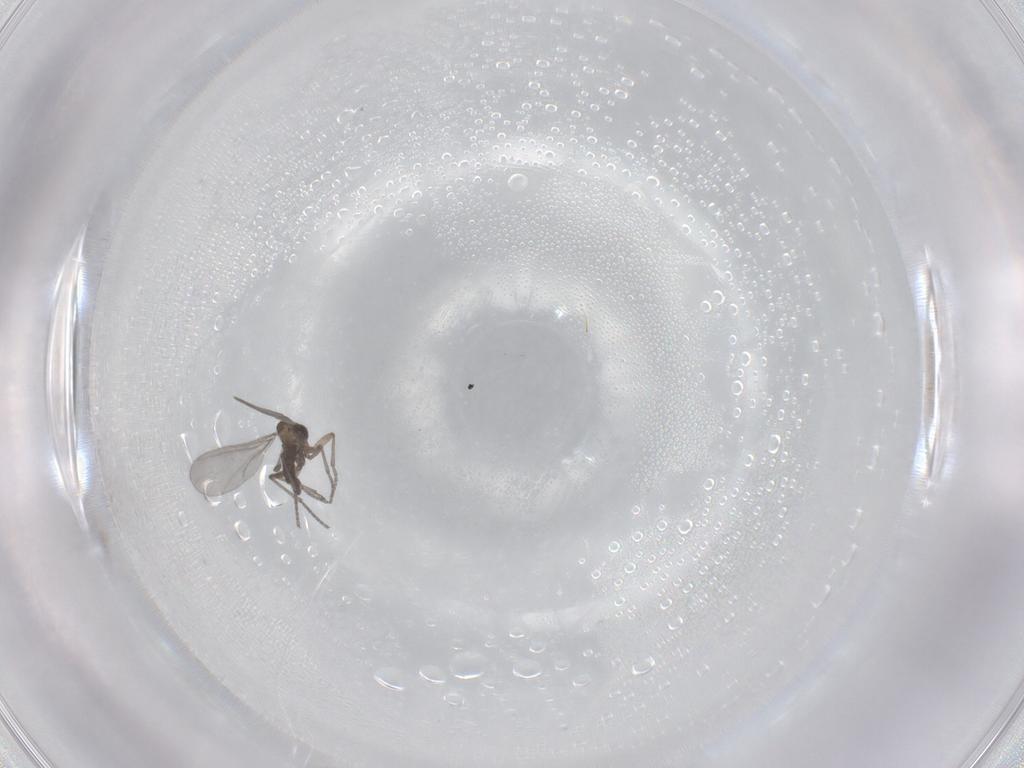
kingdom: Animalia
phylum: Arthropoda
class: Insecta
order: Diptera
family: Sciaridae
